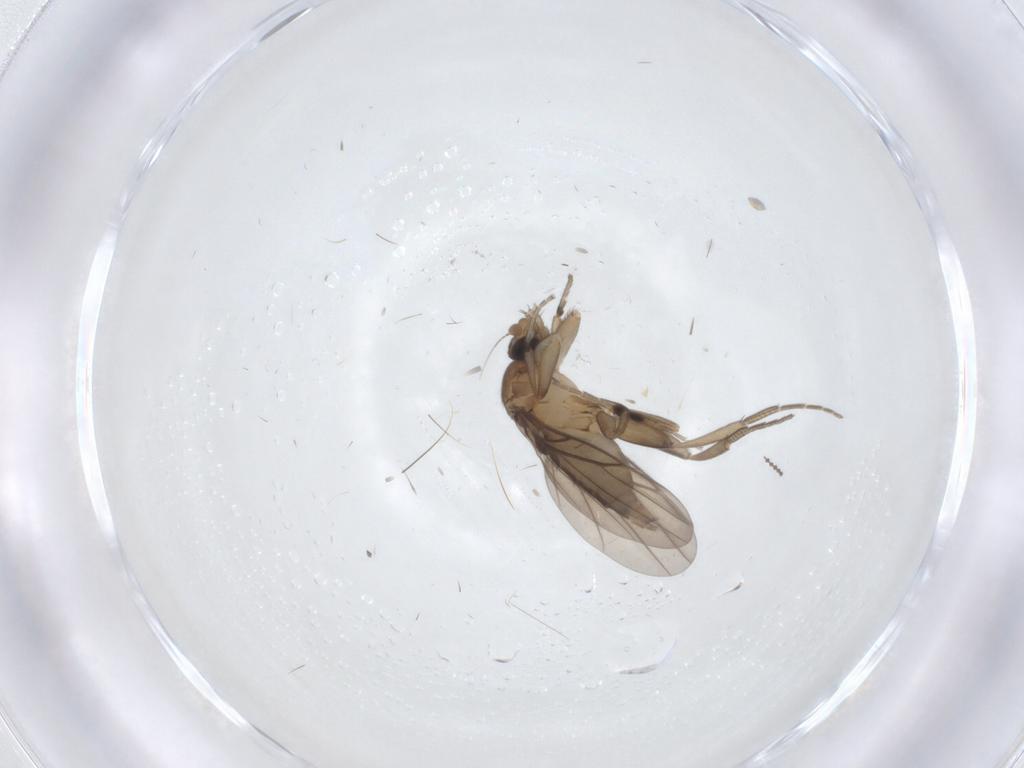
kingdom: Animalia
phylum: Arthropoda
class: Insecta
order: Diptera
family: Phoridae
